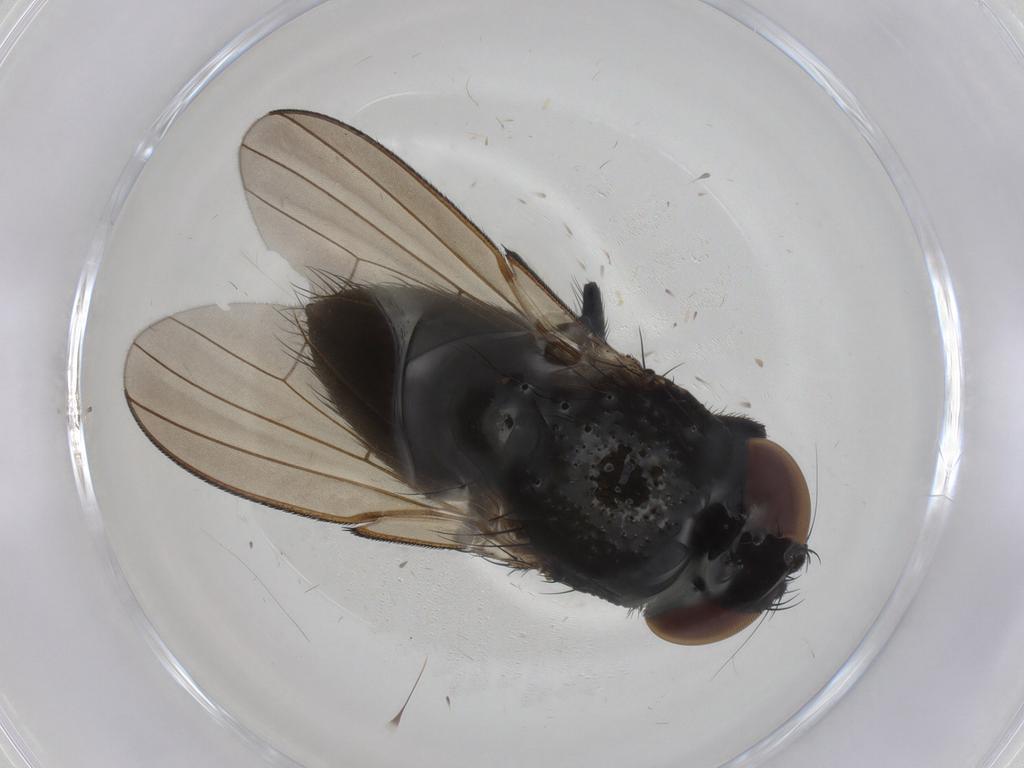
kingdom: Animalia
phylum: Arthropoda
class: Insecta
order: Diptera
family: Milichiidae
